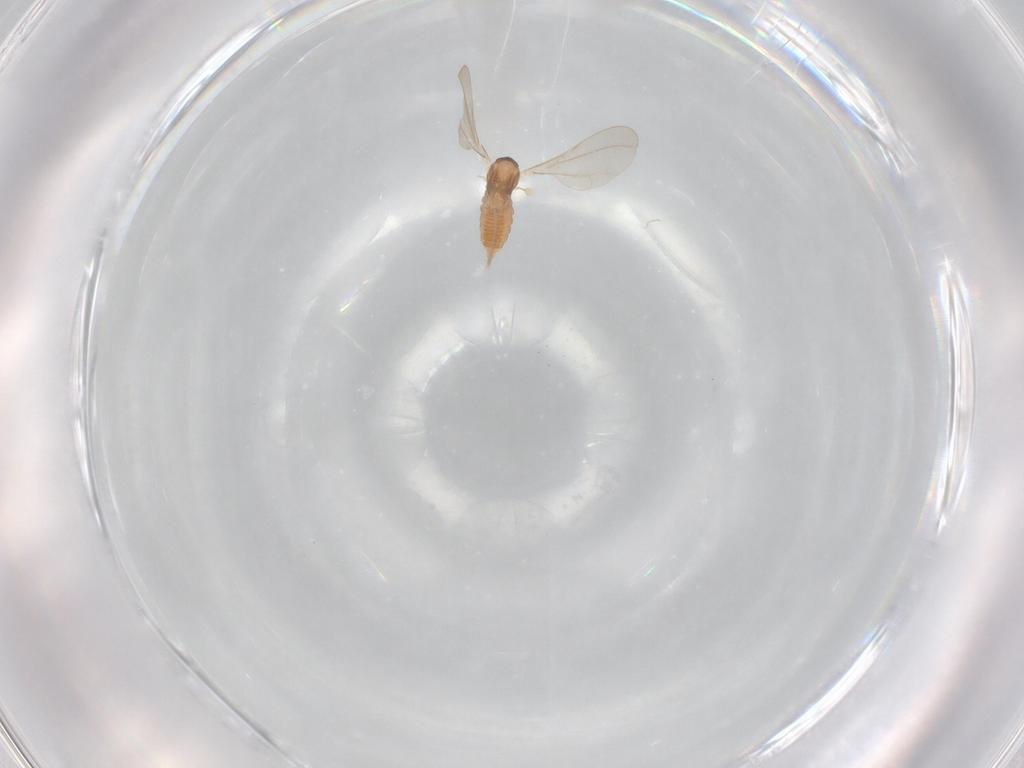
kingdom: Animalia
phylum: Arthropoda
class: Insecta
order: Diptera
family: Cecidomyiidae
